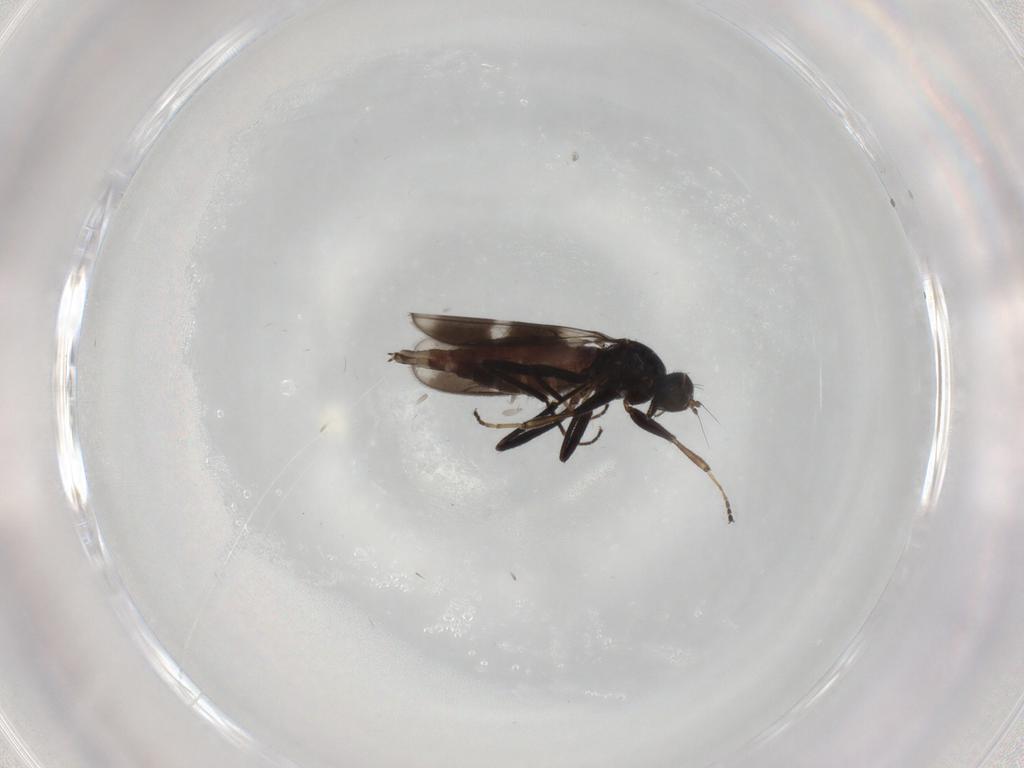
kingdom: Animalia
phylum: Arthropoda
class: Insecta
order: Diptera
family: Hybotidae
